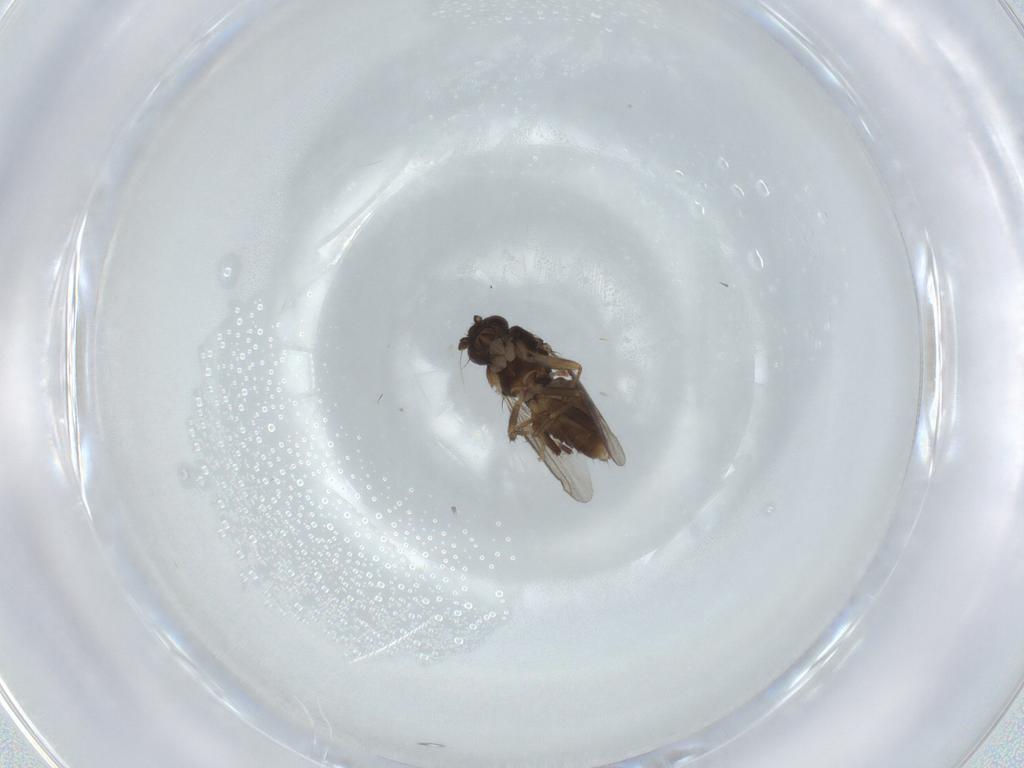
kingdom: Animalia
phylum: Arthropoda
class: Insecta
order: Diptera
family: Sphaeroceridae
